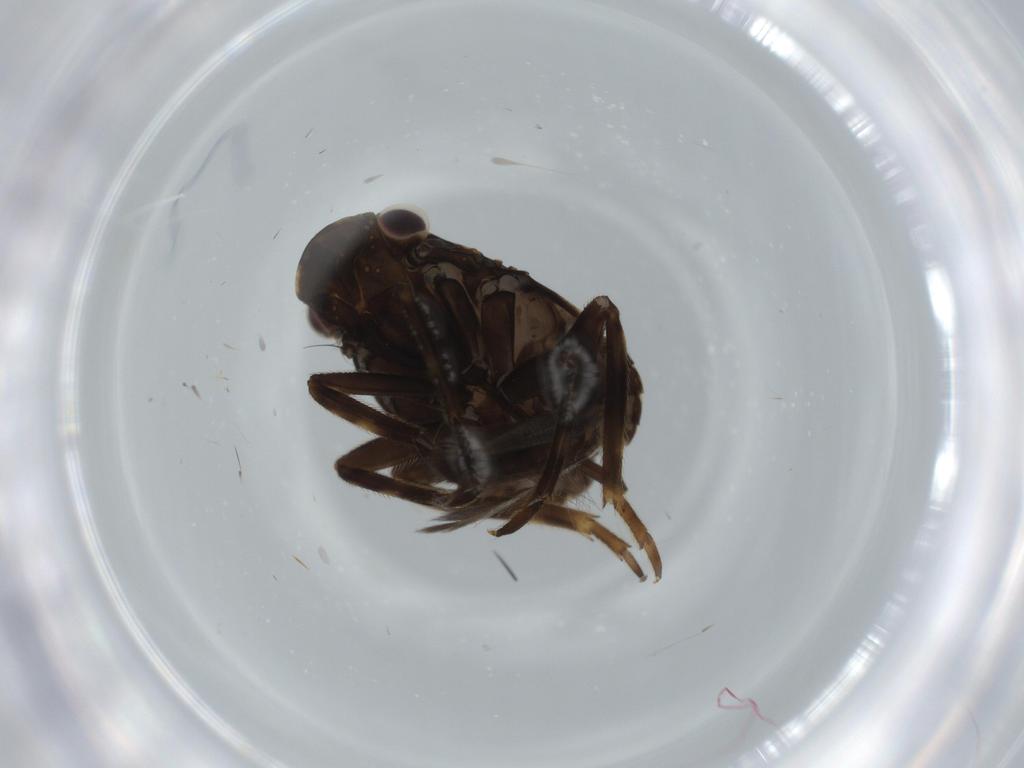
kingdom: Animalia
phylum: Arthropoda
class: Insecta
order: Hemiptera
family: Fulgoridae
